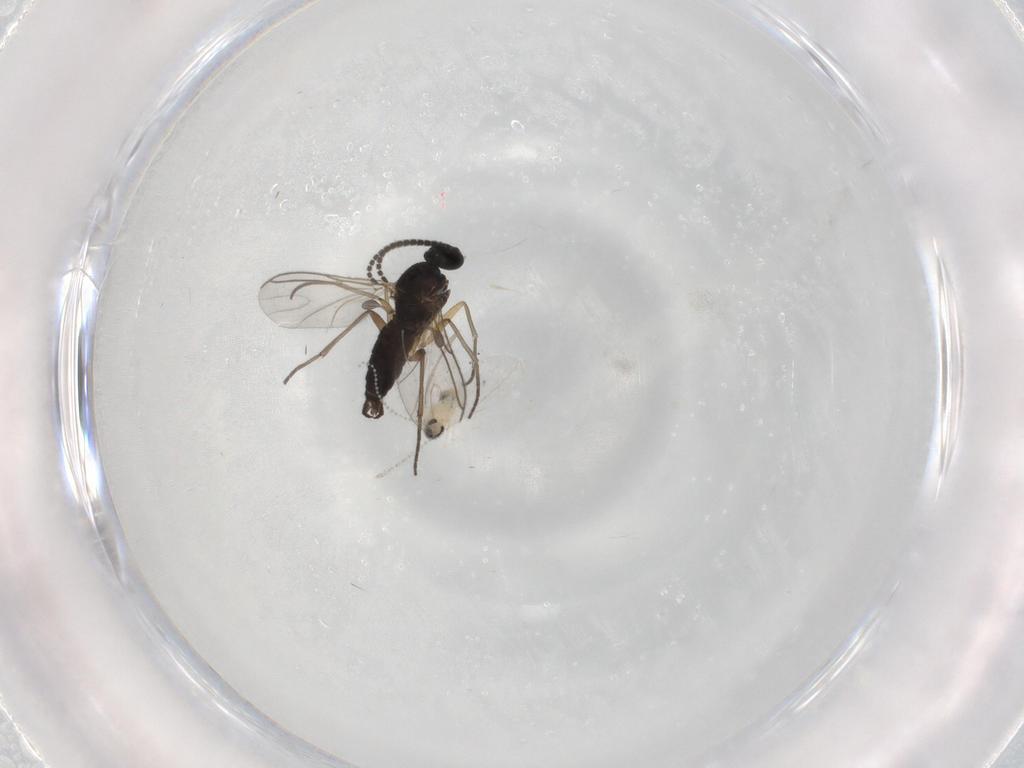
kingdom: Animalia
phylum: Arthropoda
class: Insecta
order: Diptera
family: Sciaridae
